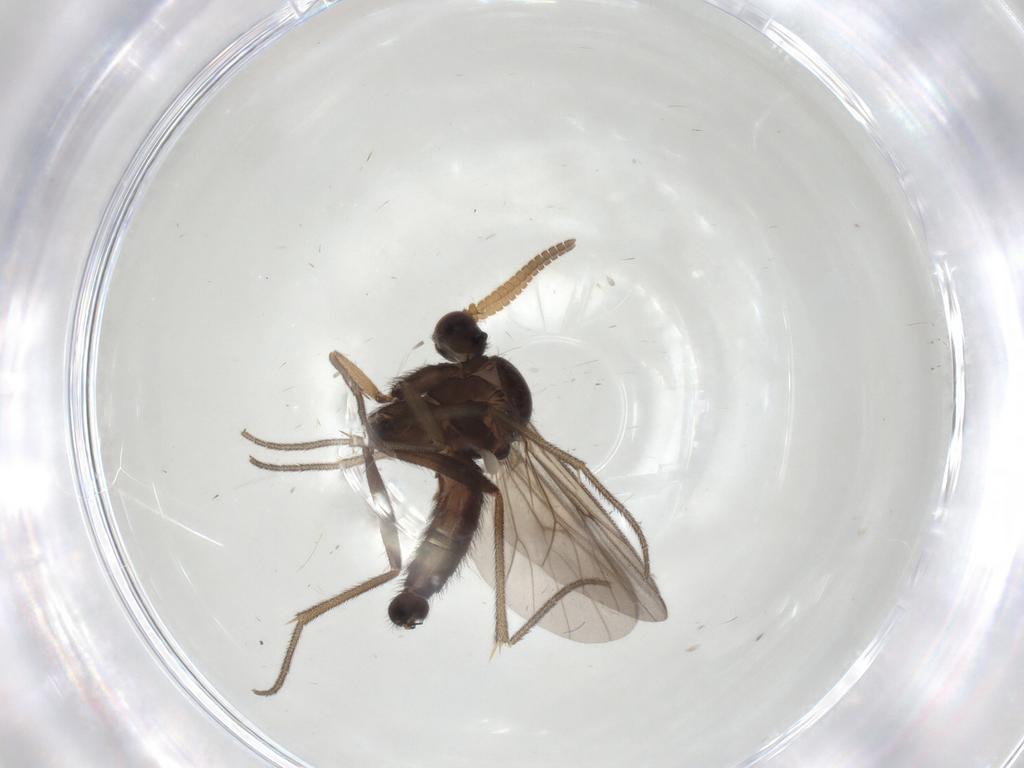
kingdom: Animalia
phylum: Arthropoda
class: Insecta
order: Diptera
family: Mycetophilidae
